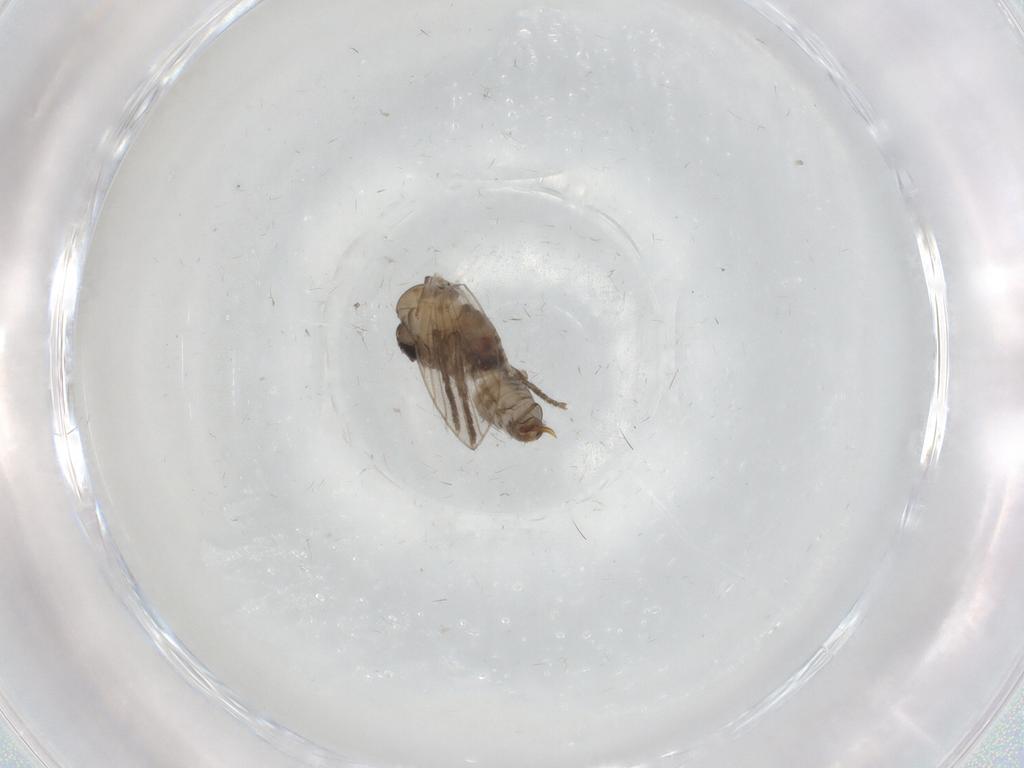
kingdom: Animalia
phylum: Arthropoda
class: Insecta
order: Diptera
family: Psychodidae
